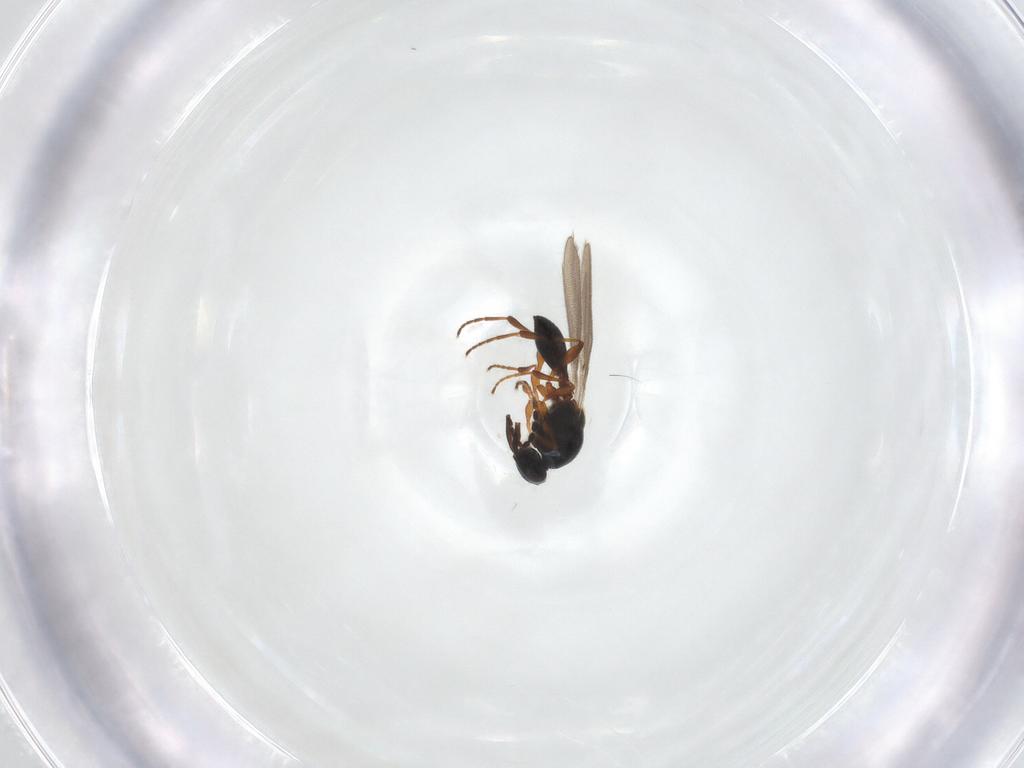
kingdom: Animalia
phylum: Arthropoda
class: Insecta
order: Hymenoptera
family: Platygastridae
